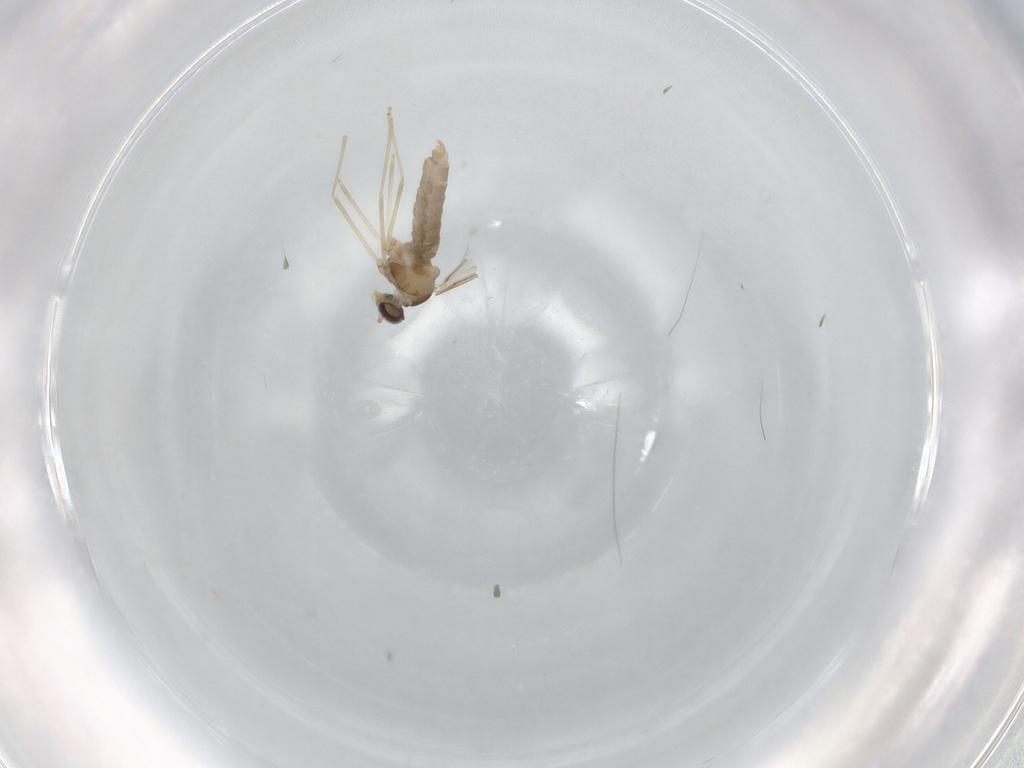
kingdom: Animalia
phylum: Arthropoda
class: Insecta
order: Diptera
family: Cecidomyiidae
